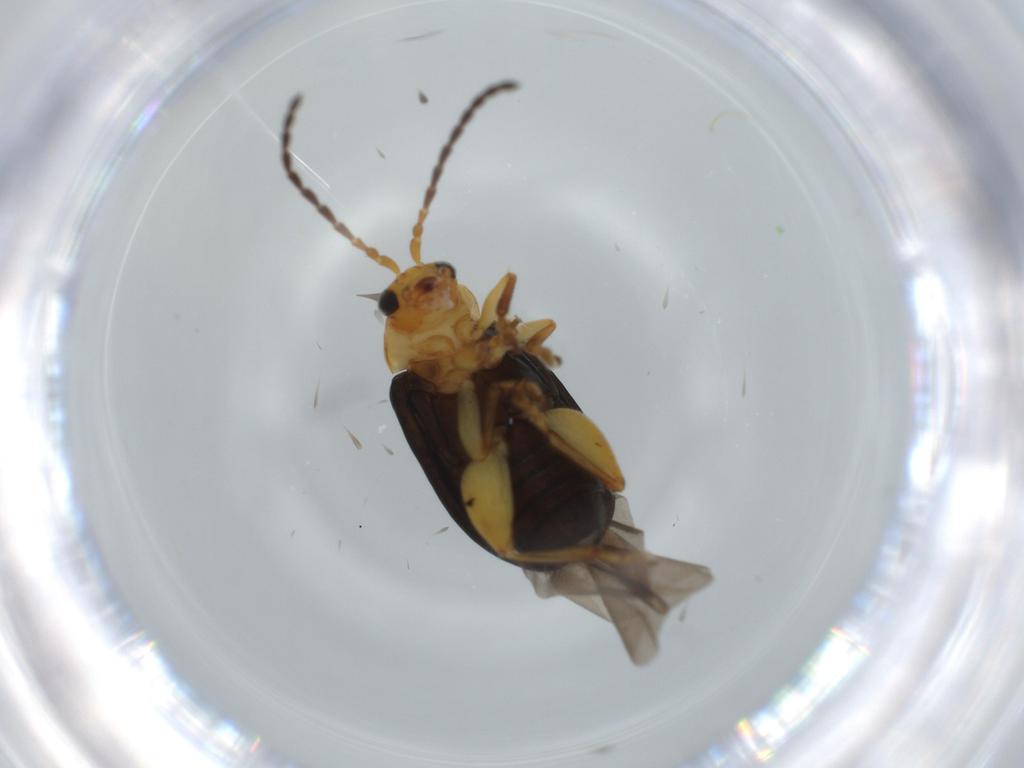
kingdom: Animalia
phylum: Arthropoda
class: Insecta
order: Coleoptera
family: Chrysomelidae
